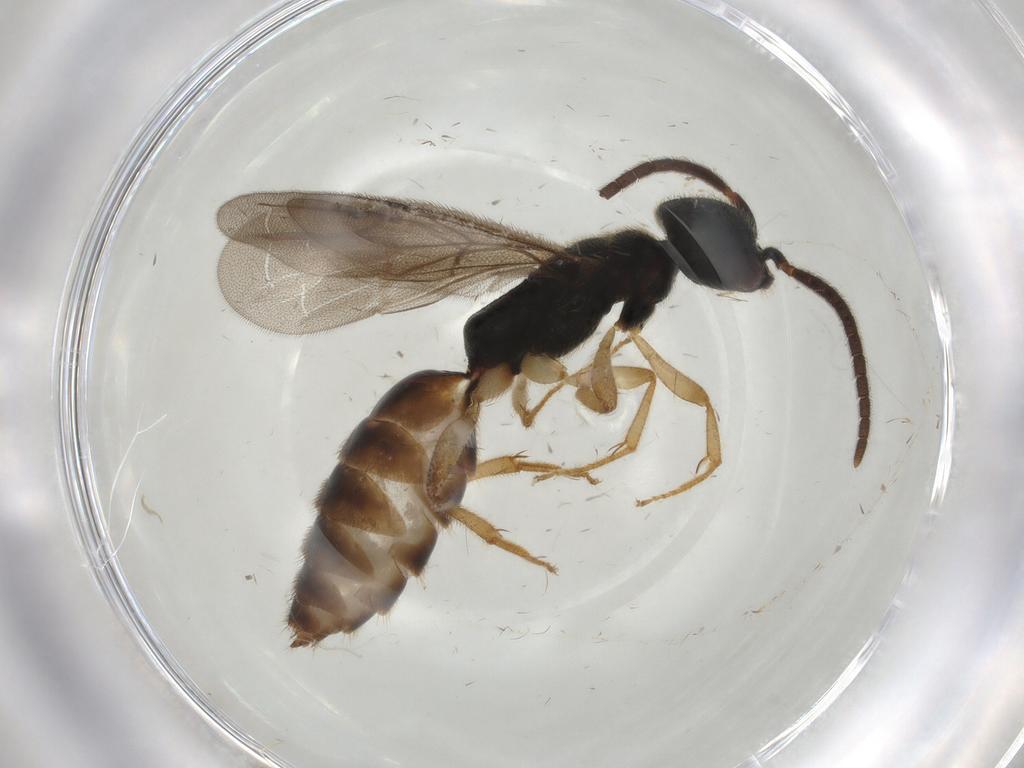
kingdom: Animalia
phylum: Arthropoda
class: Insecta
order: Hymenoptera
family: Bethylidae
